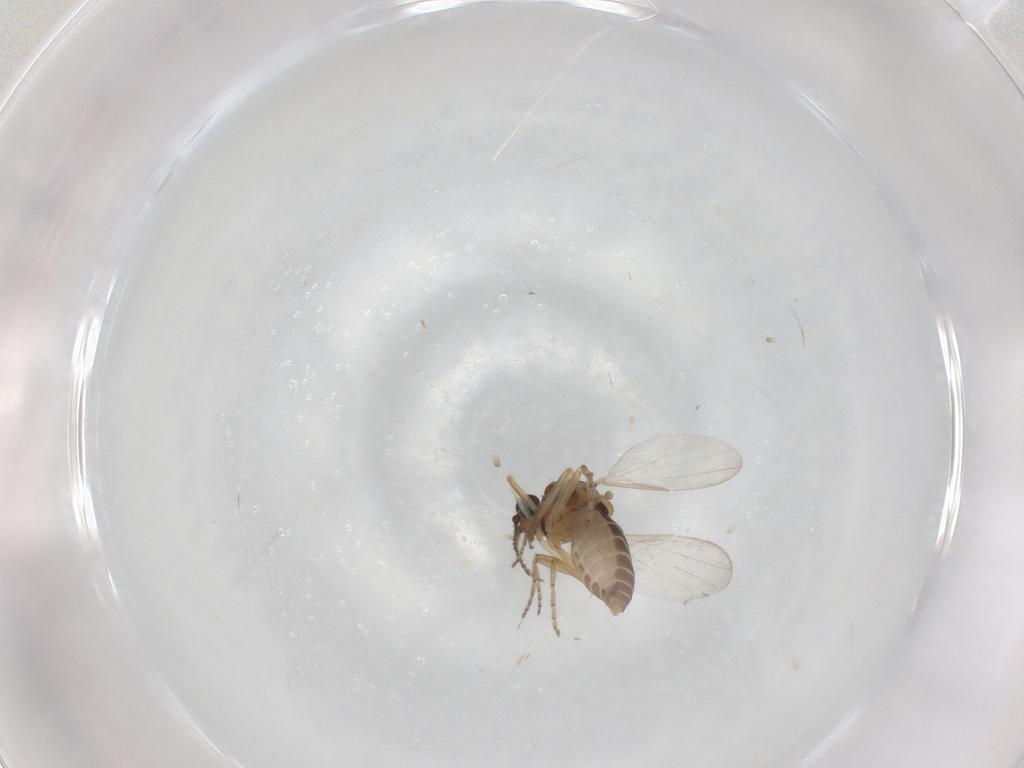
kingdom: Animalia
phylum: Arthropoda
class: Insecta
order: Diptera
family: Ceratopogonidae
